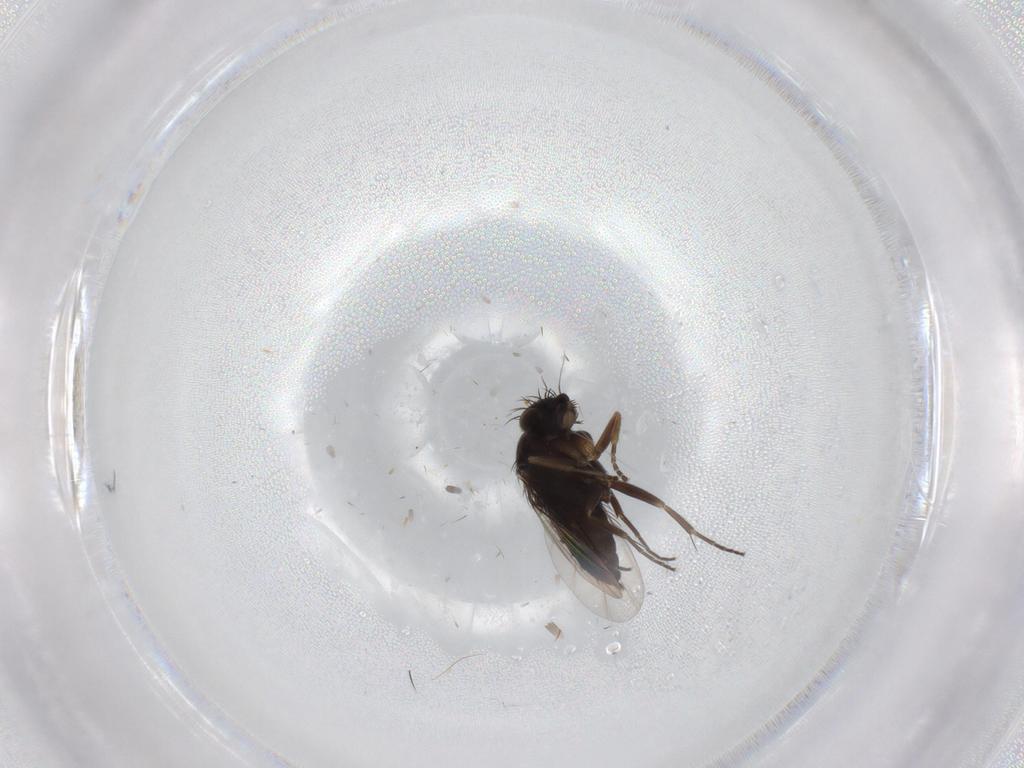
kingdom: Animalia
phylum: Arthropoda
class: Insecta
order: Diptera
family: Phoridae
